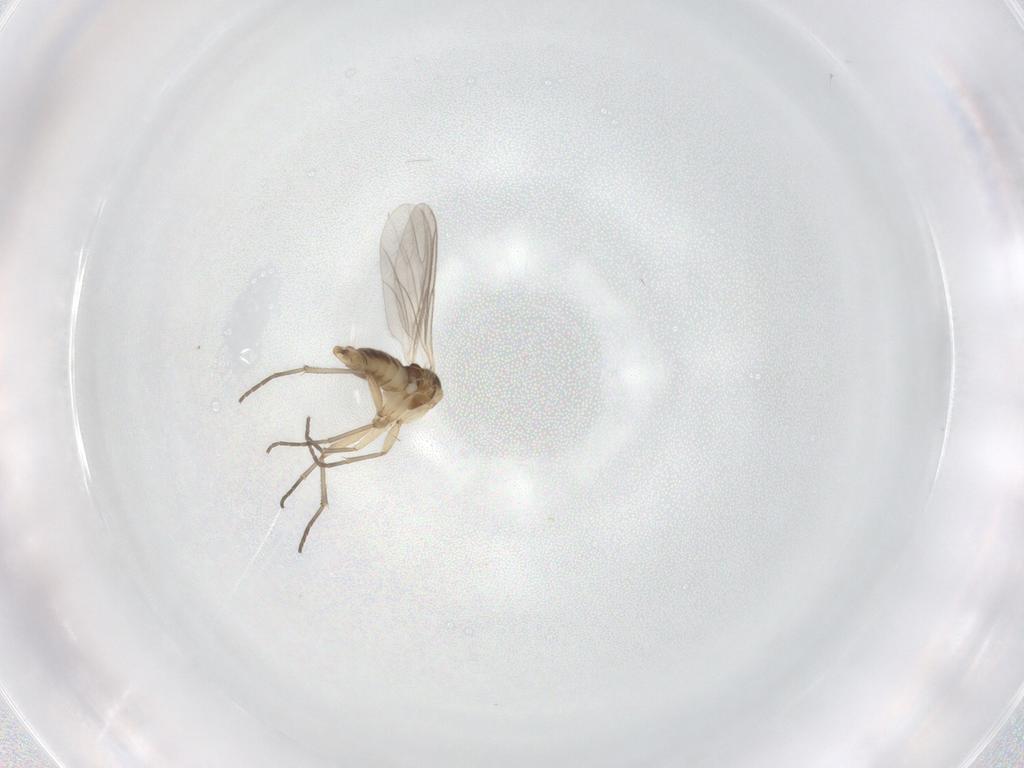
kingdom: Animalia
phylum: Arthropoda
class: Insecta
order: Diptera
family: Sciaridae
